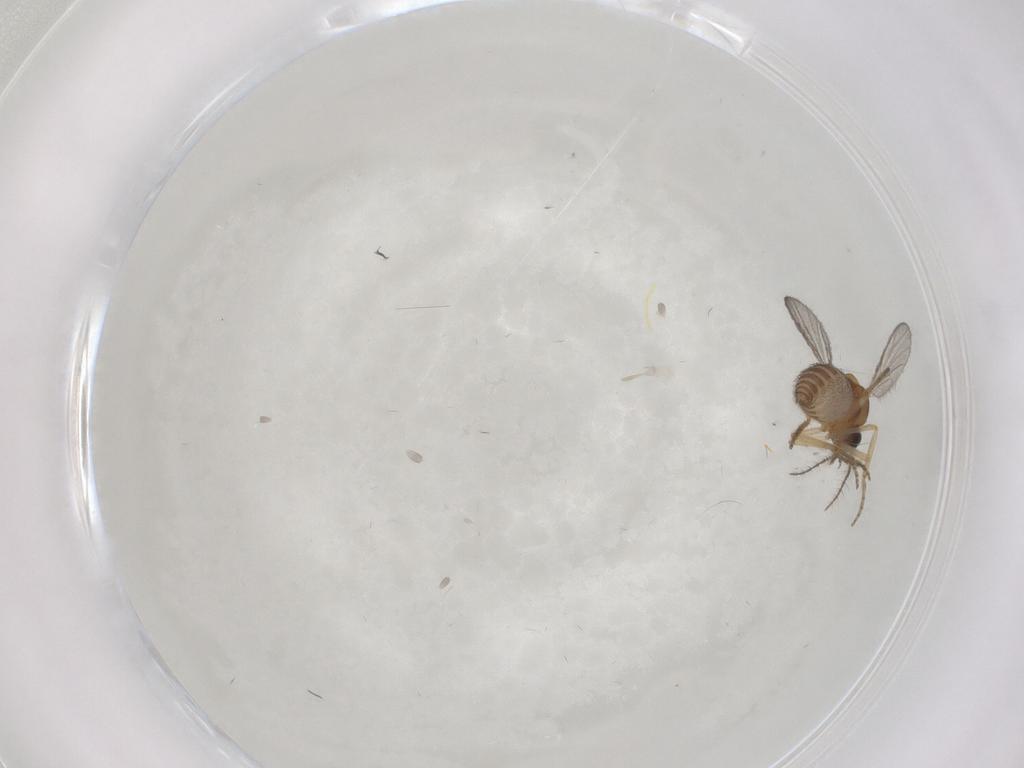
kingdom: Animalia
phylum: Arthropoda
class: Insecta
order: Diptera
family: Ceratopogonidae
